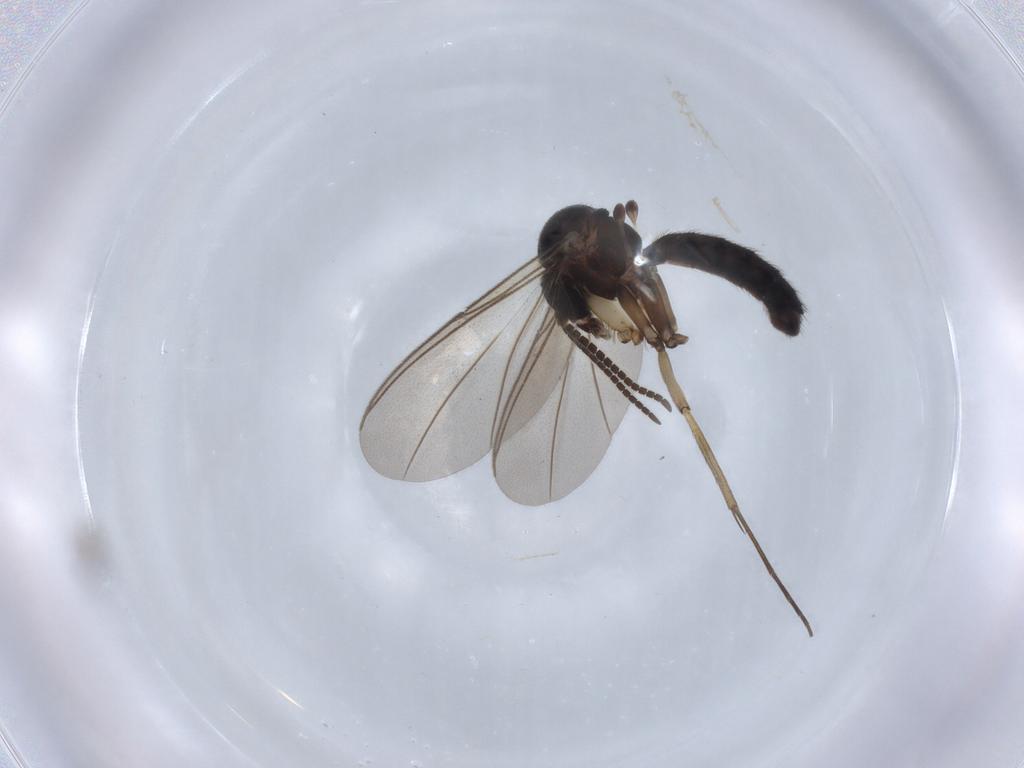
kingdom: Animalia
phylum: Arthropoda
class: Insecta
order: Diptera
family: Mycetophilidae
